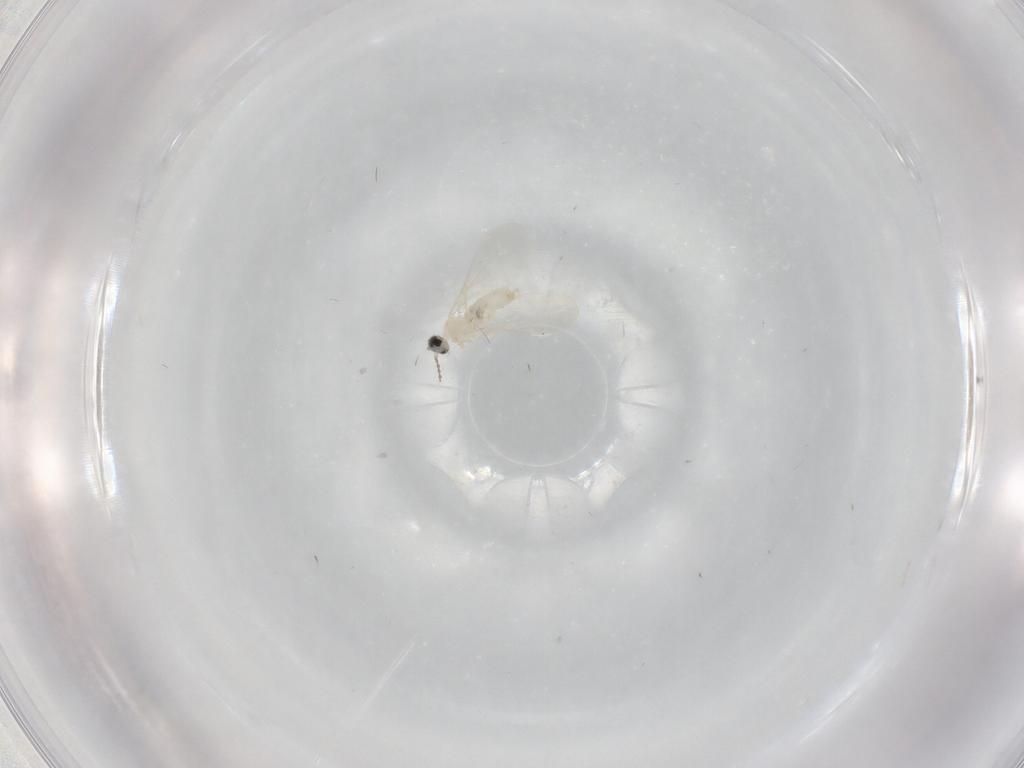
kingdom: Animalia
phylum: Arthropoda
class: Insecta
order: Diptera
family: Cecidomyiidae
